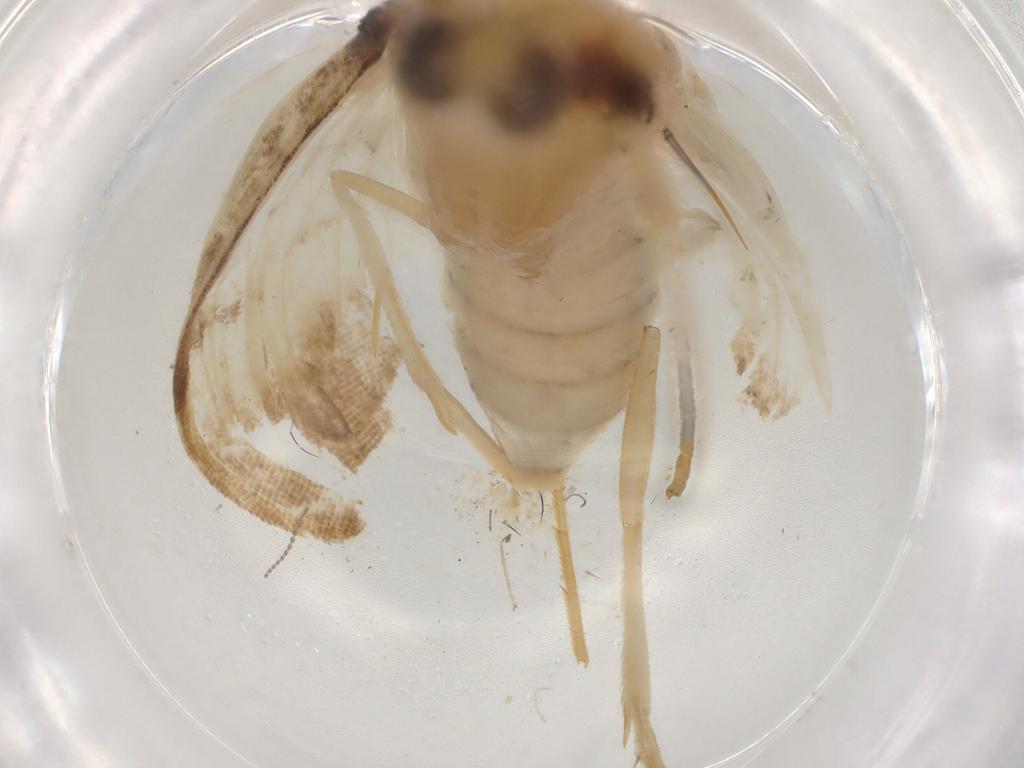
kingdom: Animalia
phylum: Arthropoda
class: Insecta
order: Lepidoptera
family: Crambidae
